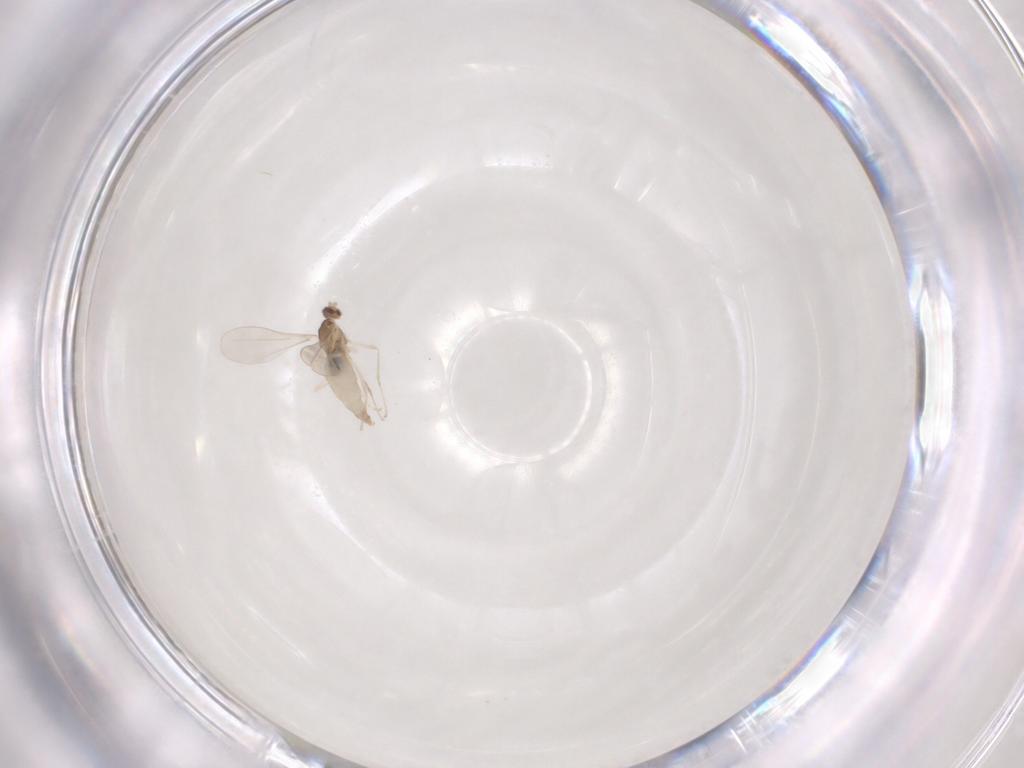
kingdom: Animalia
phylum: Arthropoda
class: Insecta
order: Diptera
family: Cecidomyiidae
